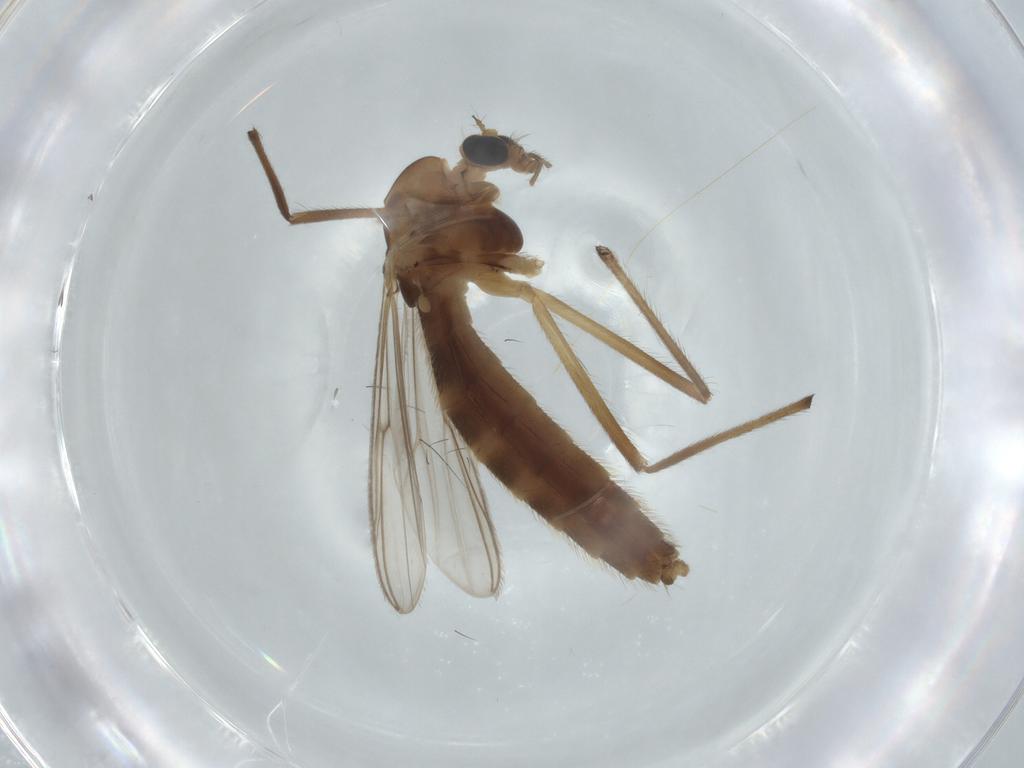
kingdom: Animalia
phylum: Arthropoda
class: Insecta
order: Diptera
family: Chironomidae
